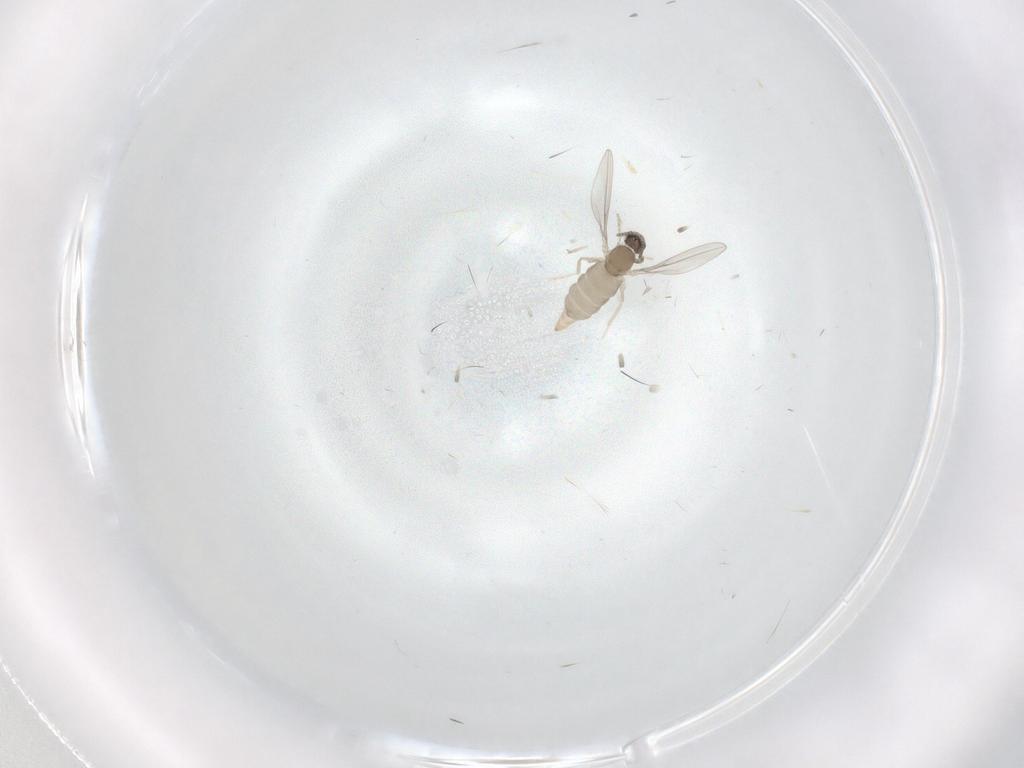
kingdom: Animalia
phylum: Arthropoda
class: Insecta
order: Diptera
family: Cecidomyiidae
